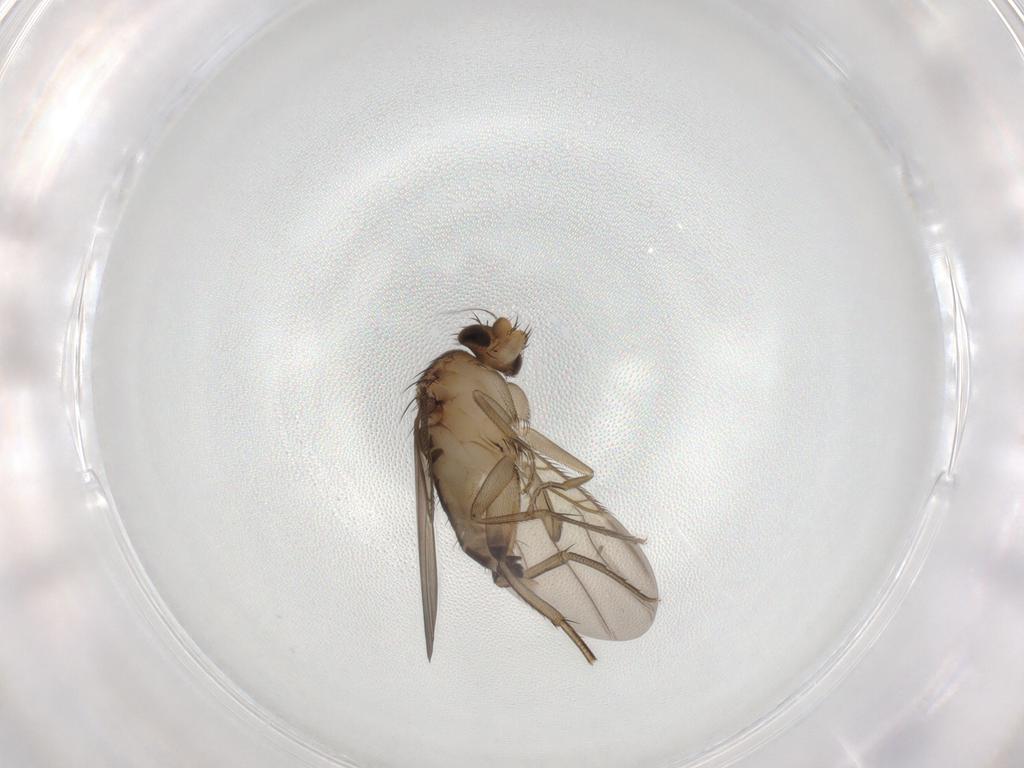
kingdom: Animalia
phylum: Arthropoda
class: Insecta
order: Diptera
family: Phoridae
